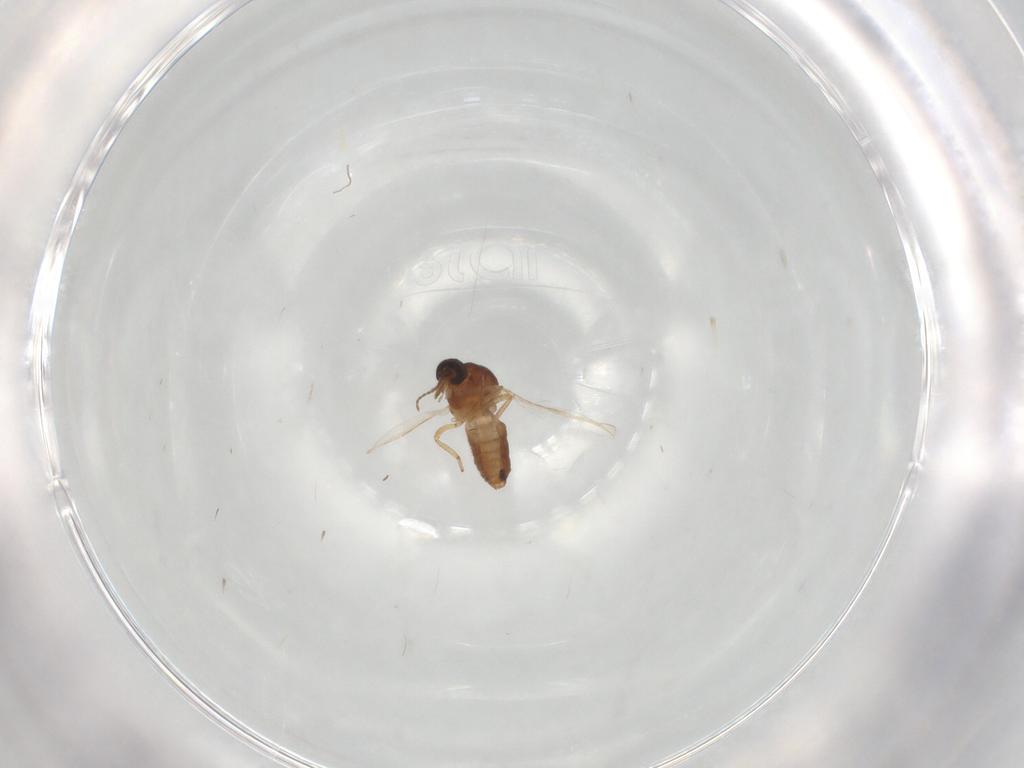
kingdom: Animalia
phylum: Arthropoda
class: Insecta
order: Diptera
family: Ceratopogonidae
